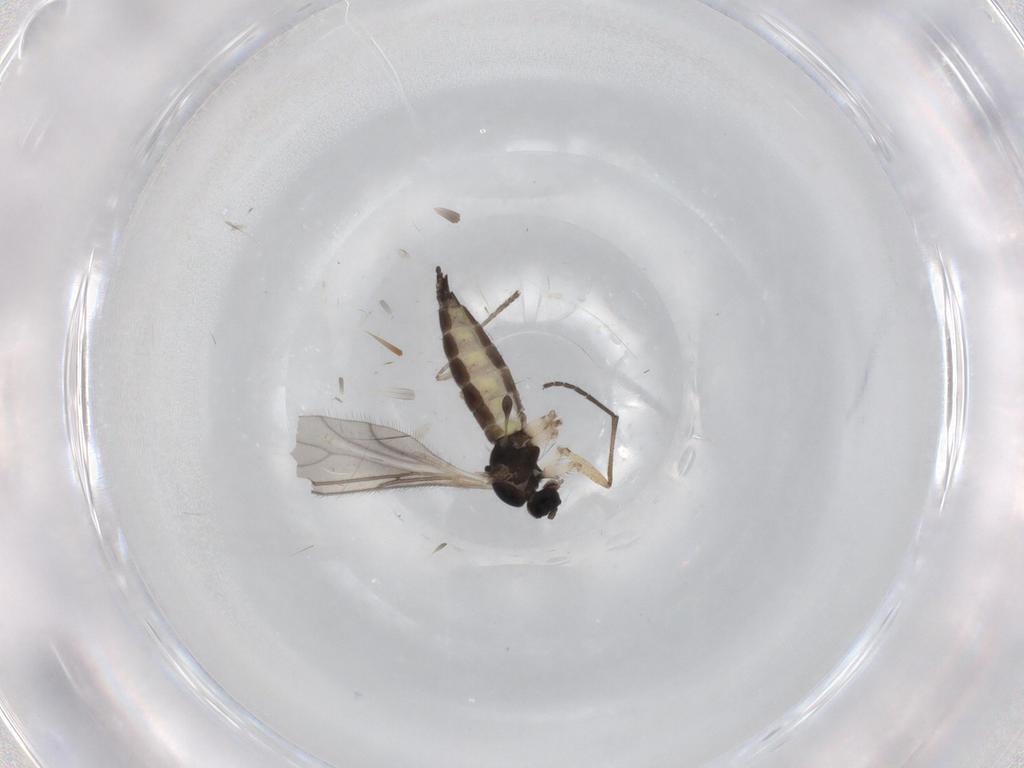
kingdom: Animalia
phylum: Arthropoda
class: Insecta
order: Diptera
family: Sciaridae
